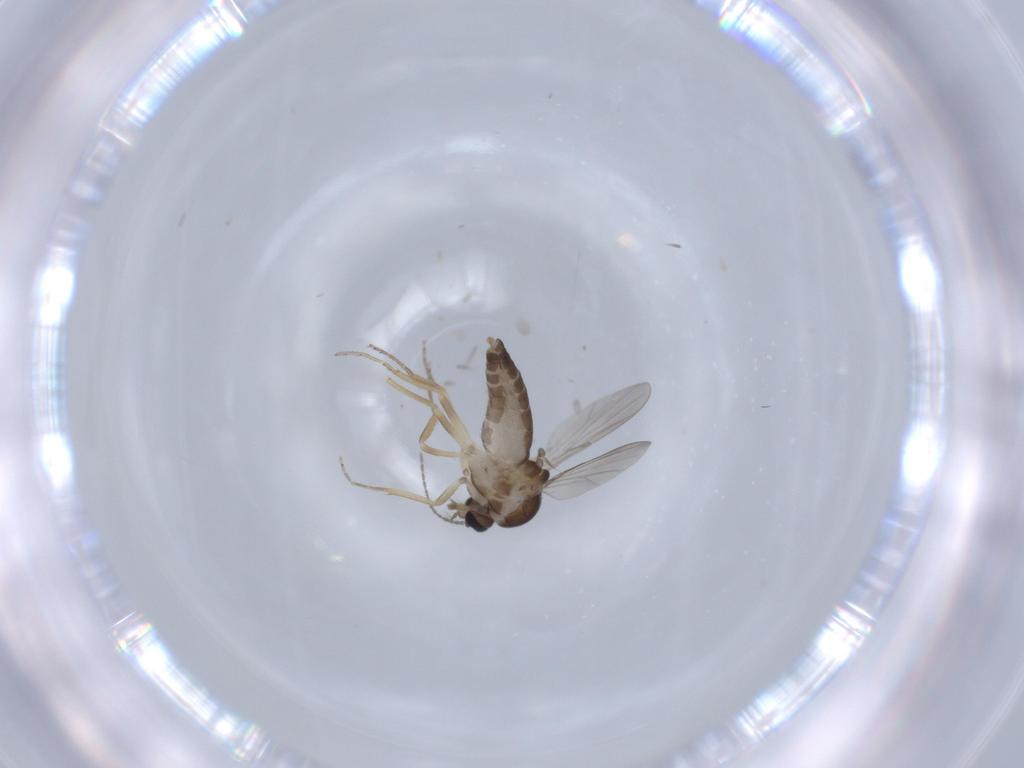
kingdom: Animalia
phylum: Arthropoda
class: Insecta
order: Diptera
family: Ceratopogonidae
